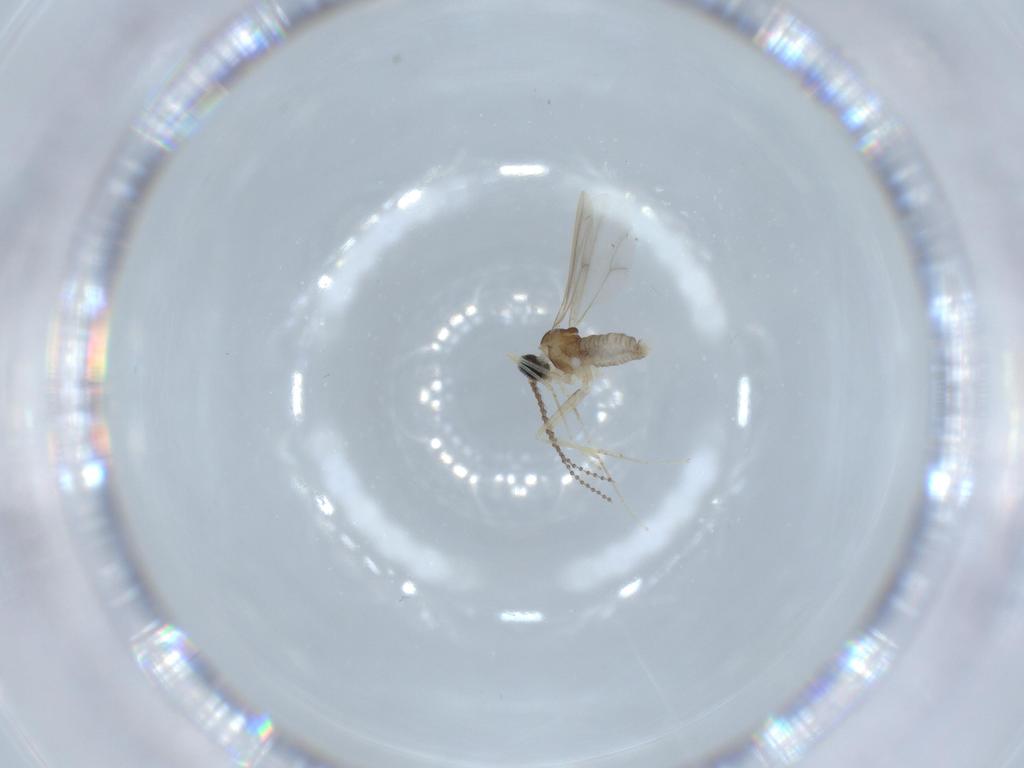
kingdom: Animalia
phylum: Arthropoda
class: Insecta
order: Diptera
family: Cecidomyiidae
